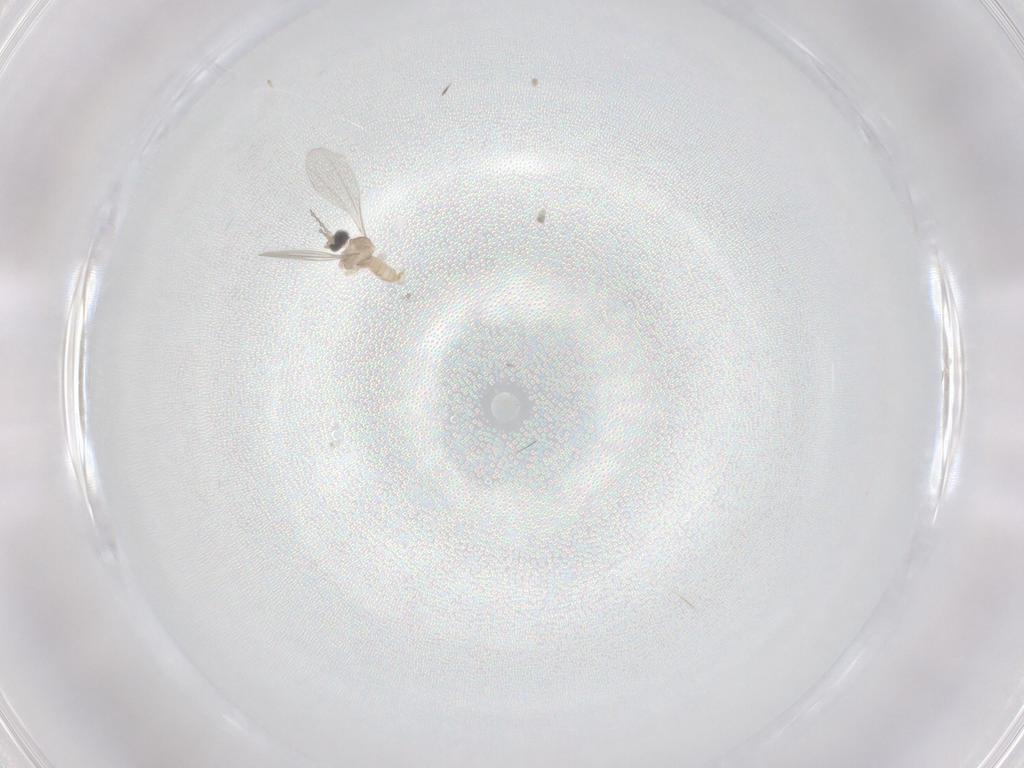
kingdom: Animalia
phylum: Arthropoda
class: Insecta
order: Diptera
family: Cecidomyiidae
